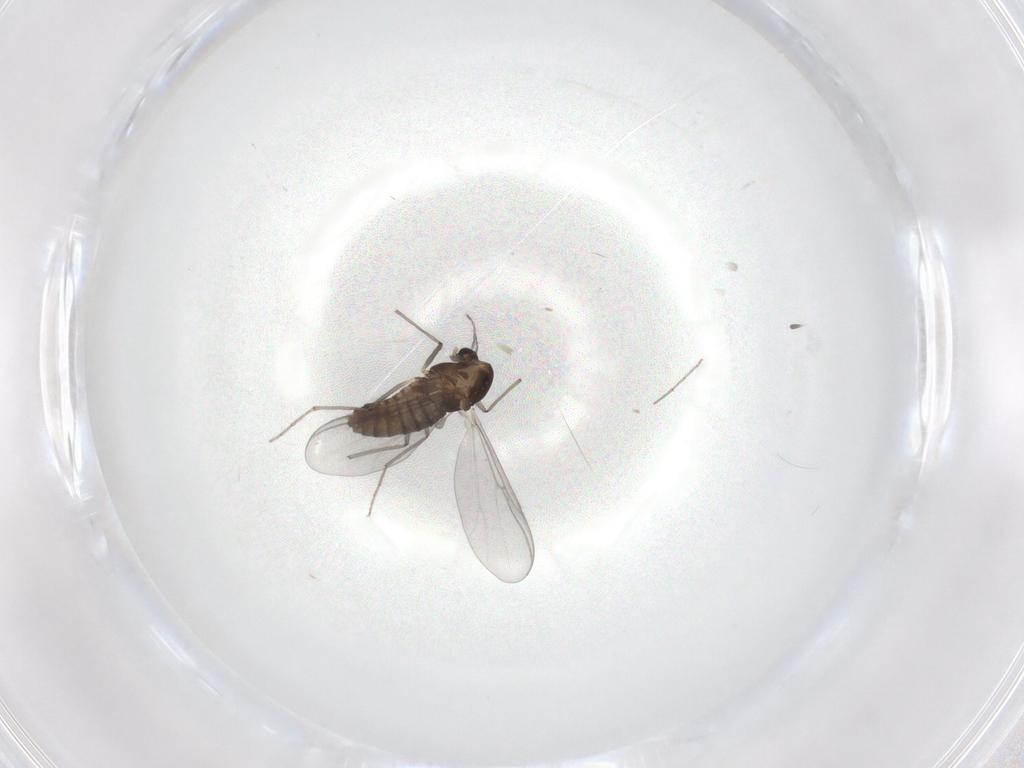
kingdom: Animalia
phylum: Arthropoda
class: Insecta
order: Diptera
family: Chironomidae
